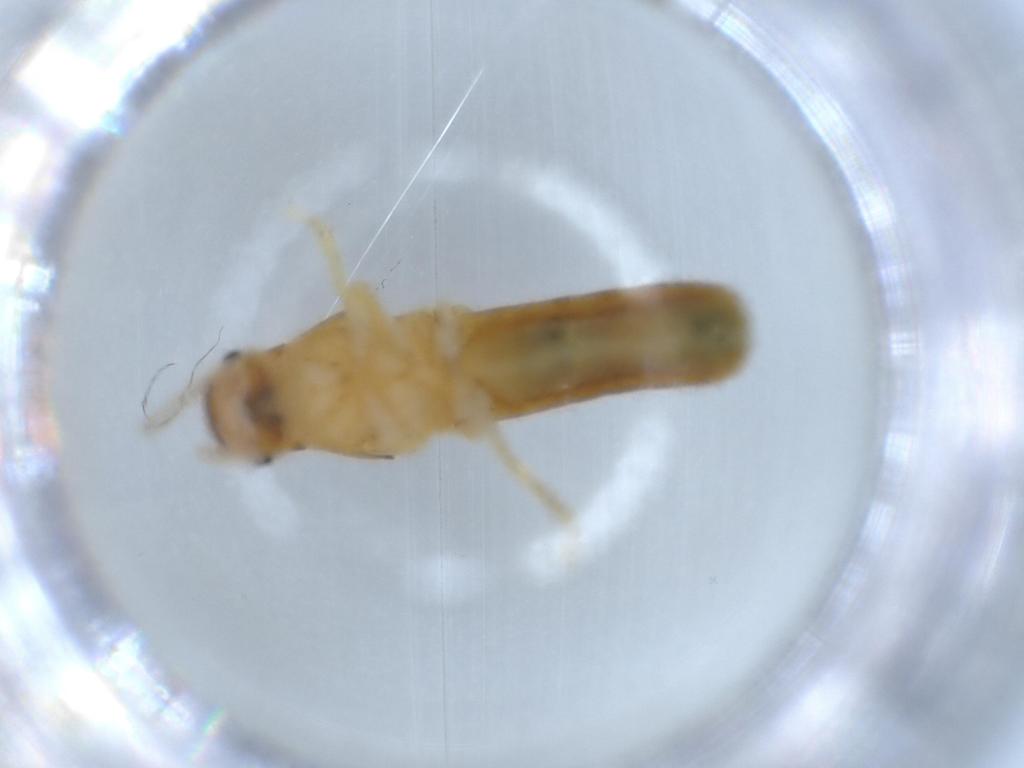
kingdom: Animalia
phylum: Arthropoda
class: Insecta
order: Blattodea
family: Kalotermitidae
